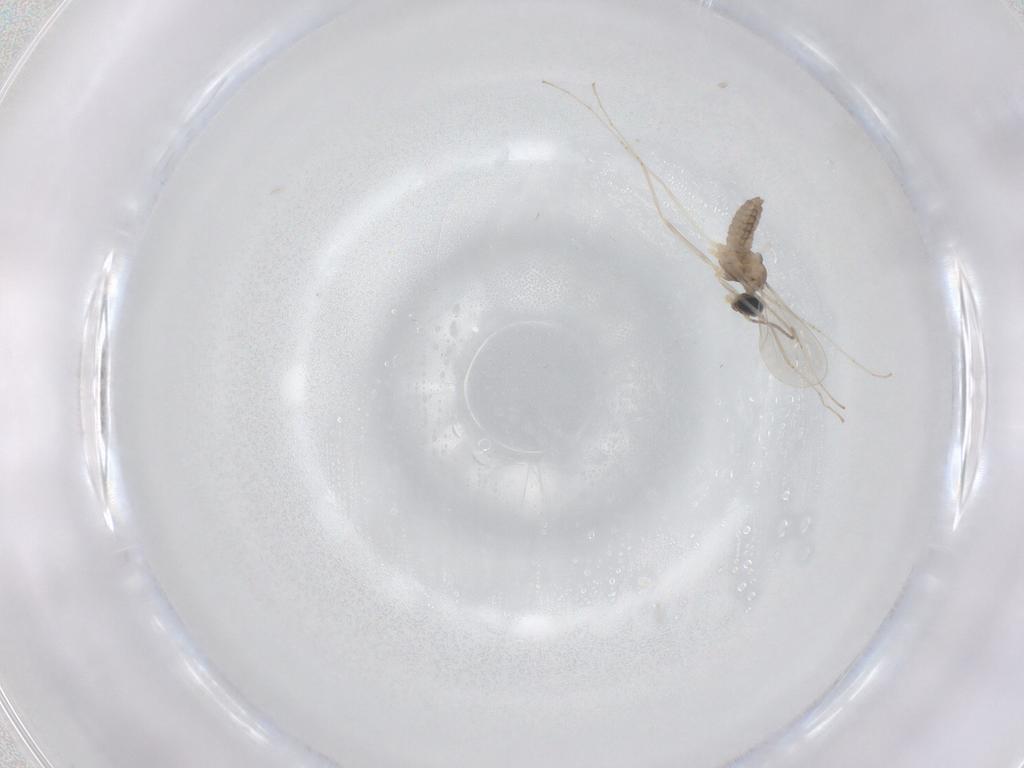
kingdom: Animalia
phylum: Arthropoda
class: Insecta
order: Diptera
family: Cecidomyiidae
